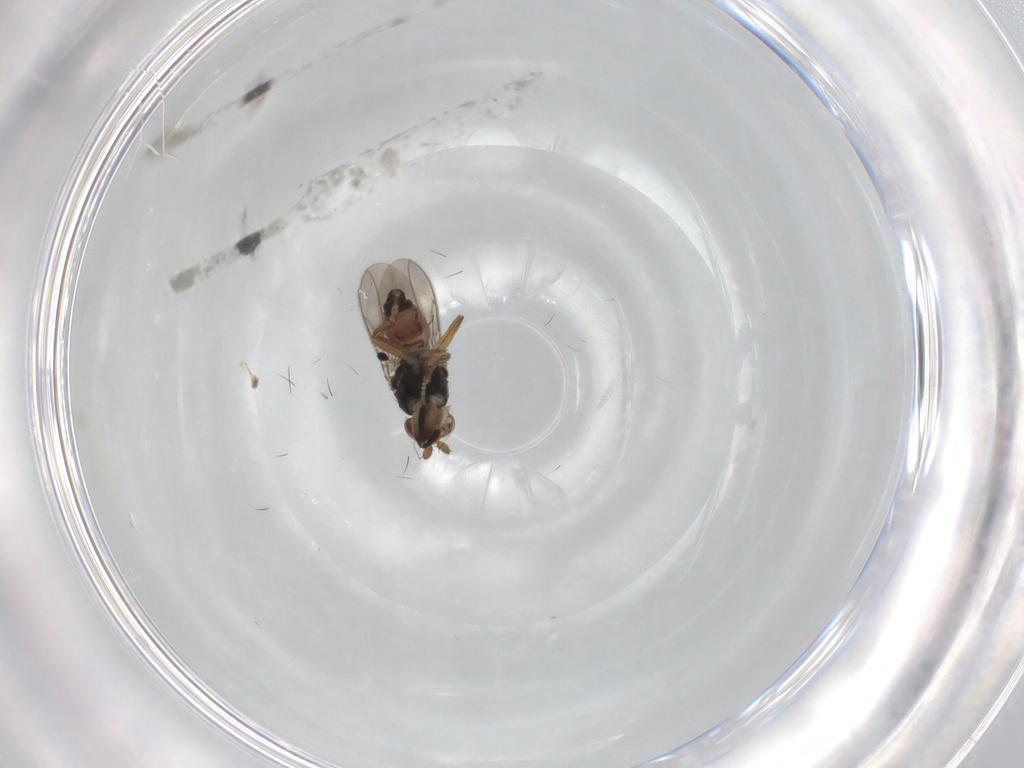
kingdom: Animalia
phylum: Arthropoda
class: Insecta
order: Diptera
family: Sphaeroceridae
